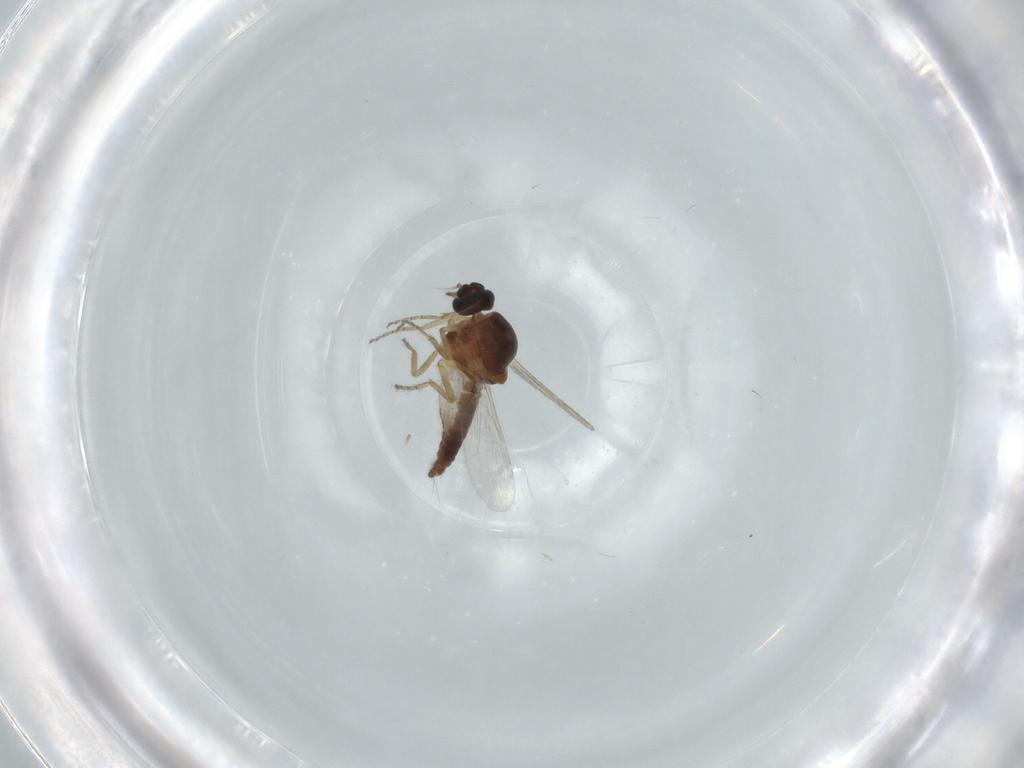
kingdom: Animalia
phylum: Arthropoda
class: Insecta
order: Diptera
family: Ceratopogonidae
